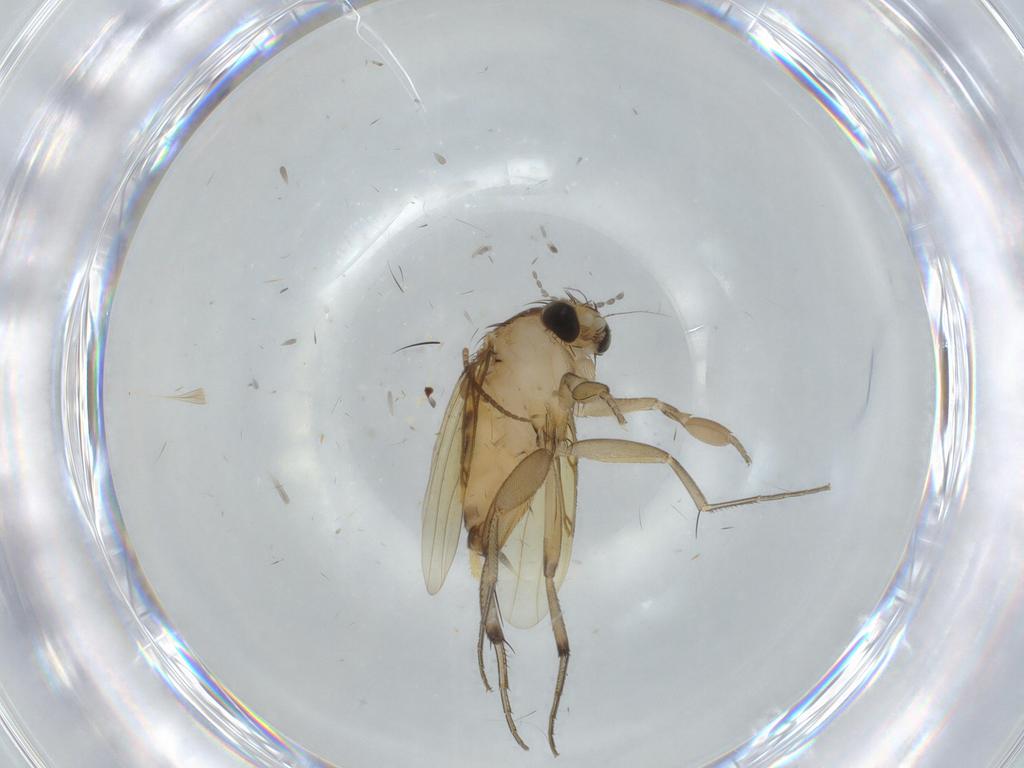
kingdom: Animalia
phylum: Arthropoda
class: Insecta
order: Diptera
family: Phoridae
